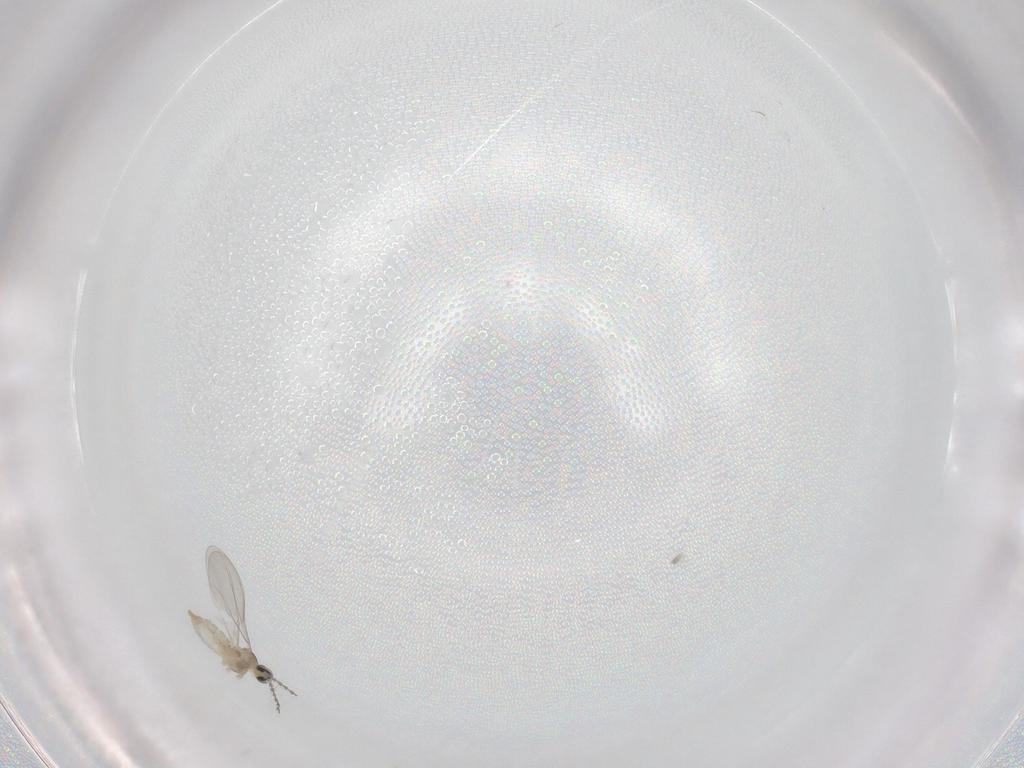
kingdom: Animalia
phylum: Arthropoda
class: Insecta
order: Diptera
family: Cecidomyiidae
